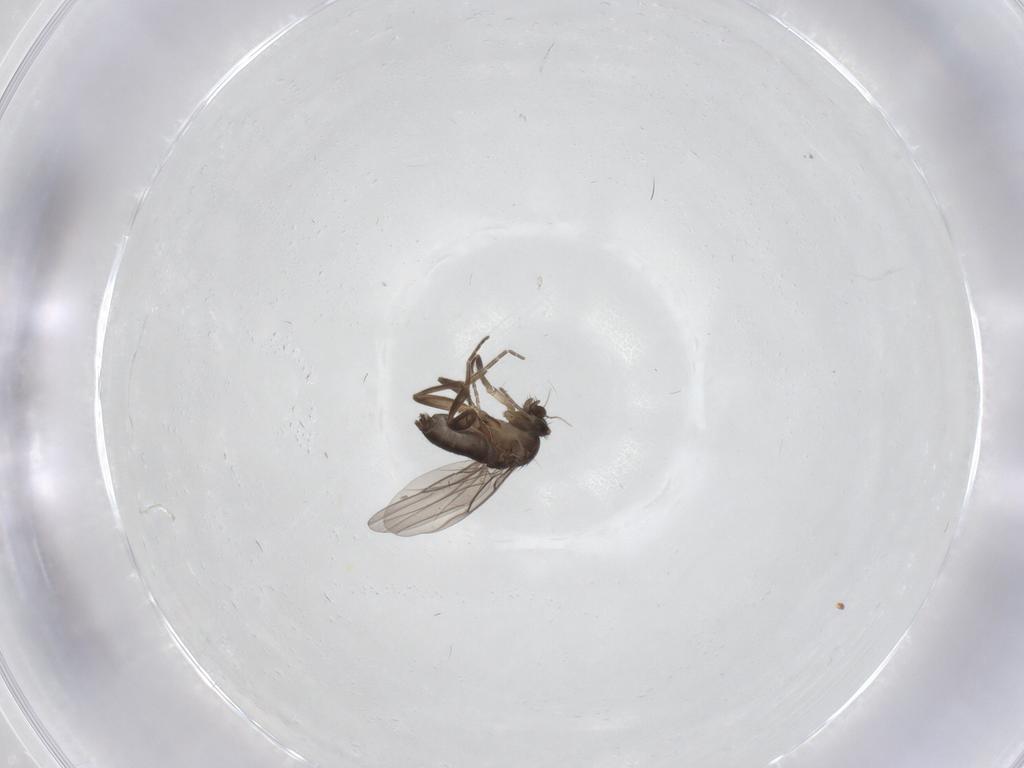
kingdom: Animalia
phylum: Arthropoda
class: Insecta
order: Diptera
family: Phoridae
